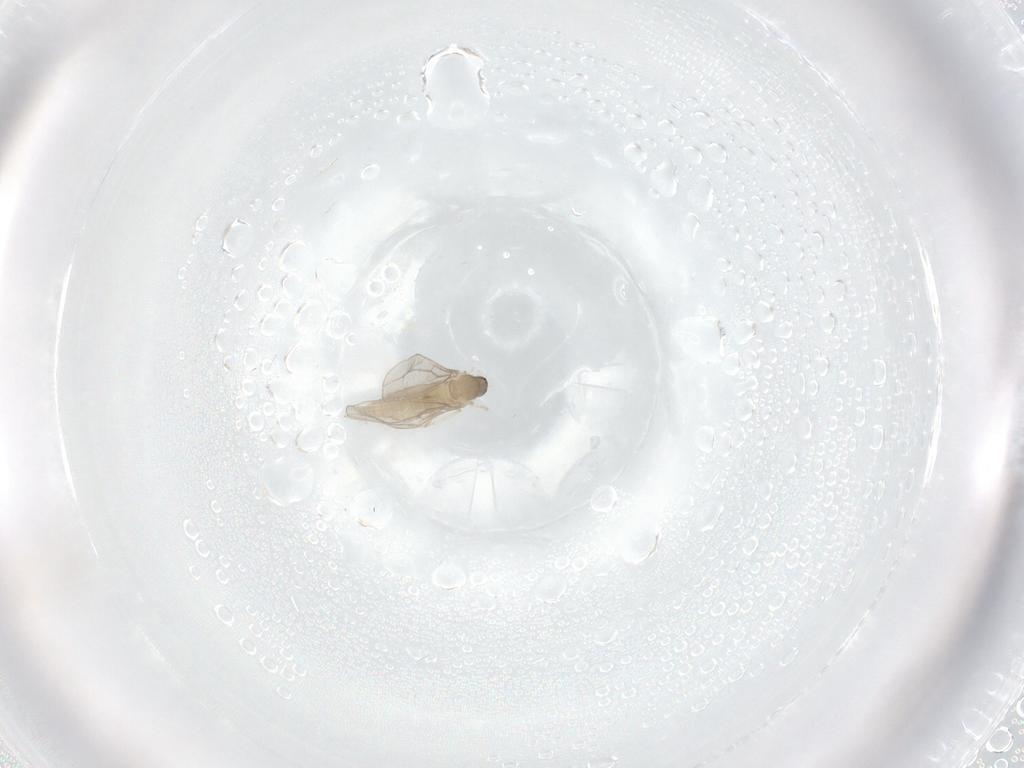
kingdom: Animalia
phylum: Arthropoda
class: Insecta
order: Diptera
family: Cecidomyiidae
